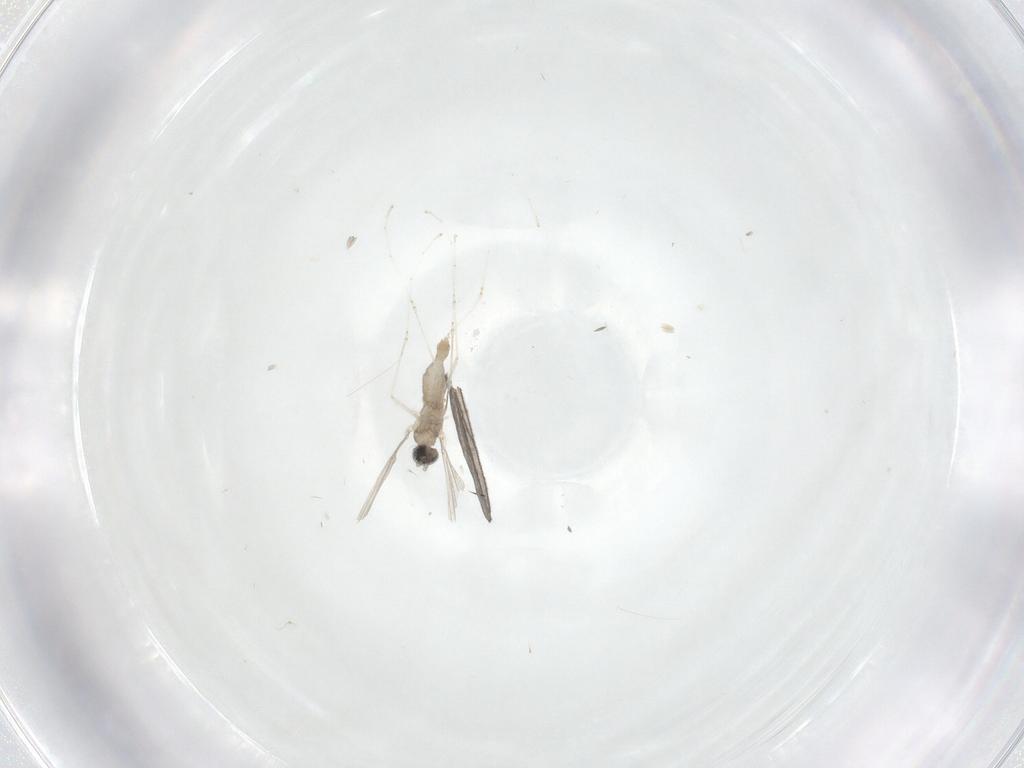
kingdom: Animalia
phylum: Arthropoda
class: Insecta
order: Diptera
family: Cecidomyiidae
